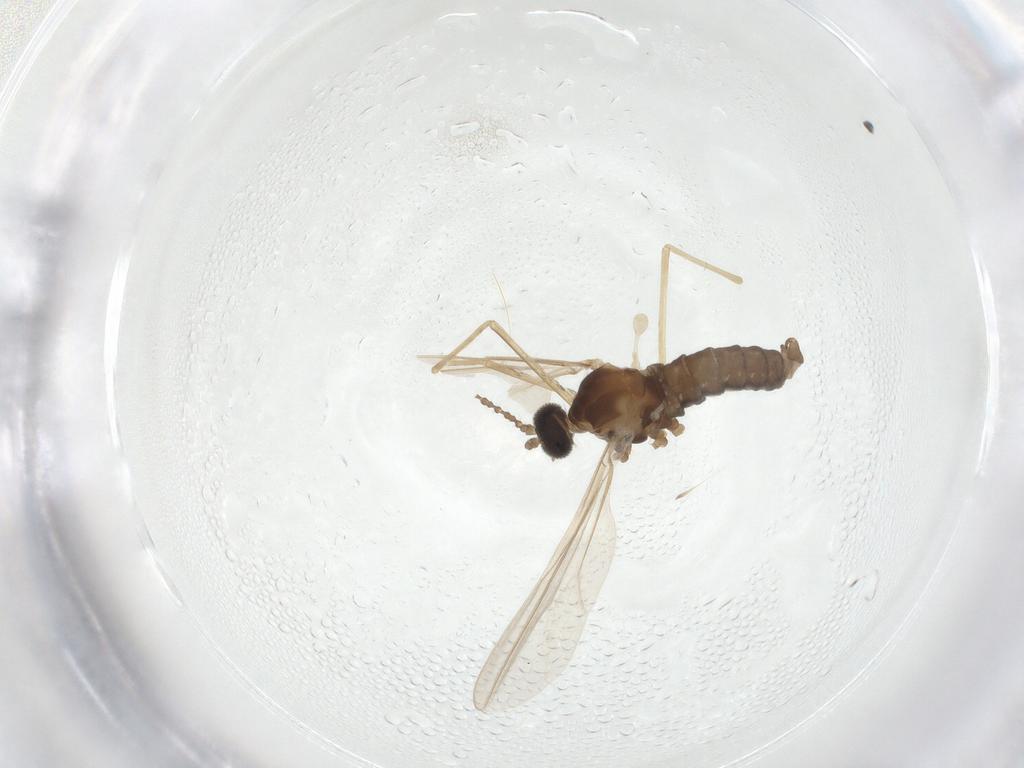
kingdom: Animalia
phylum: Arthropoda
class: Insecta
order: Diptera
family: Cecidomyiidae
